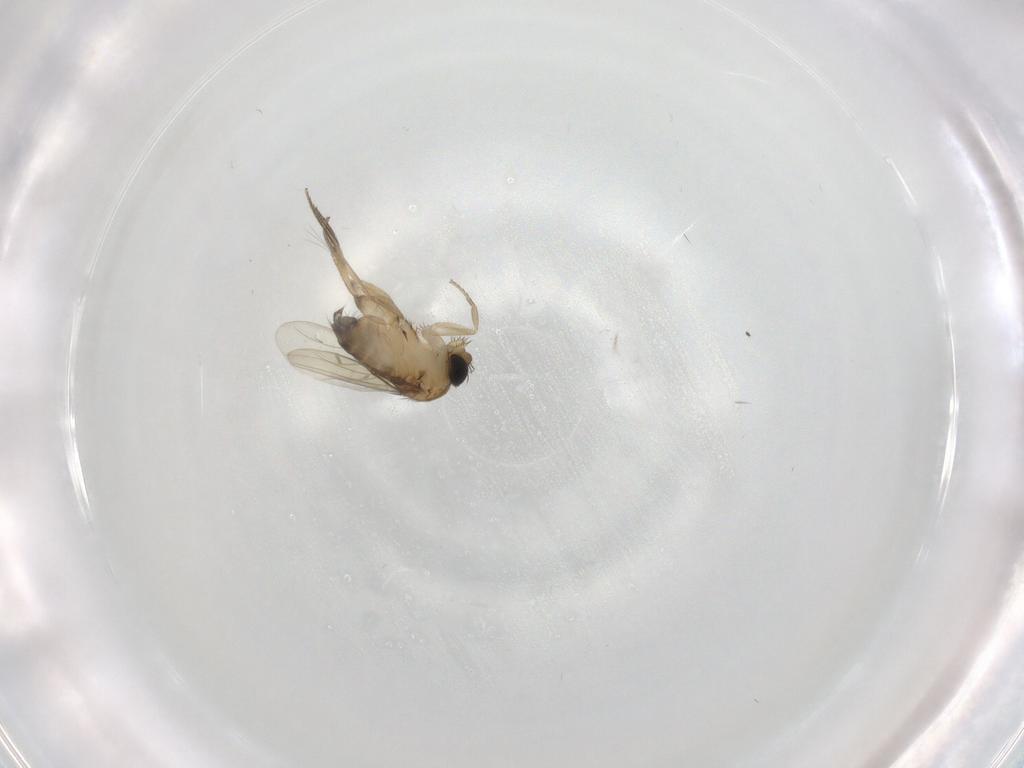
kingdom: Animalia
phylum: Arthropoda
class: Insecta
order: Diptera
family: Phoridae
